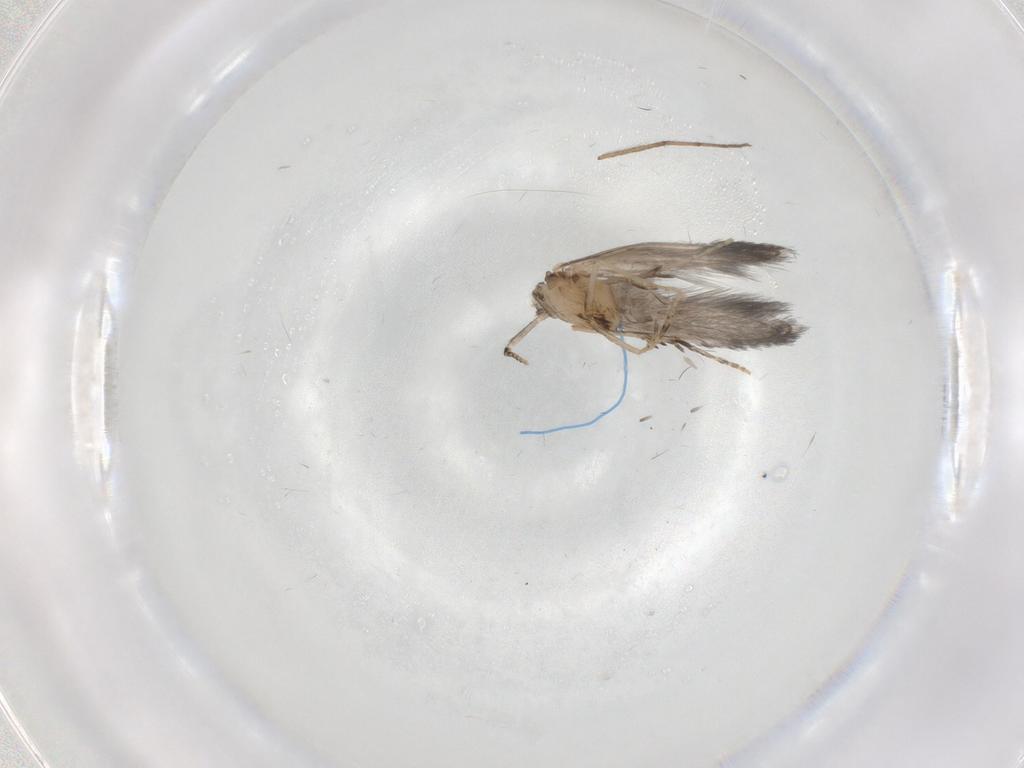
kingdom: Animalia
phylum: Arthropoda
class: Insecta
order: Trichoptera
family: Hydroptilidae
